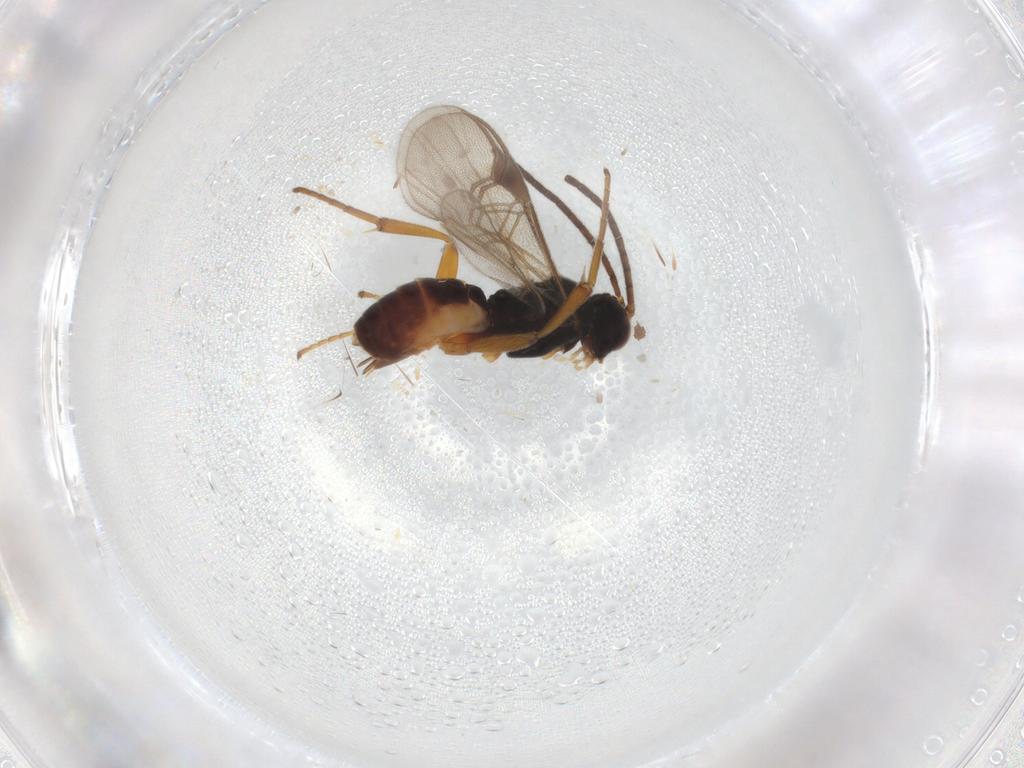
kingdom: Animalia
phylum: Arthropoda
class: Insecta
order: Hymenoptera
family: Braconidae
